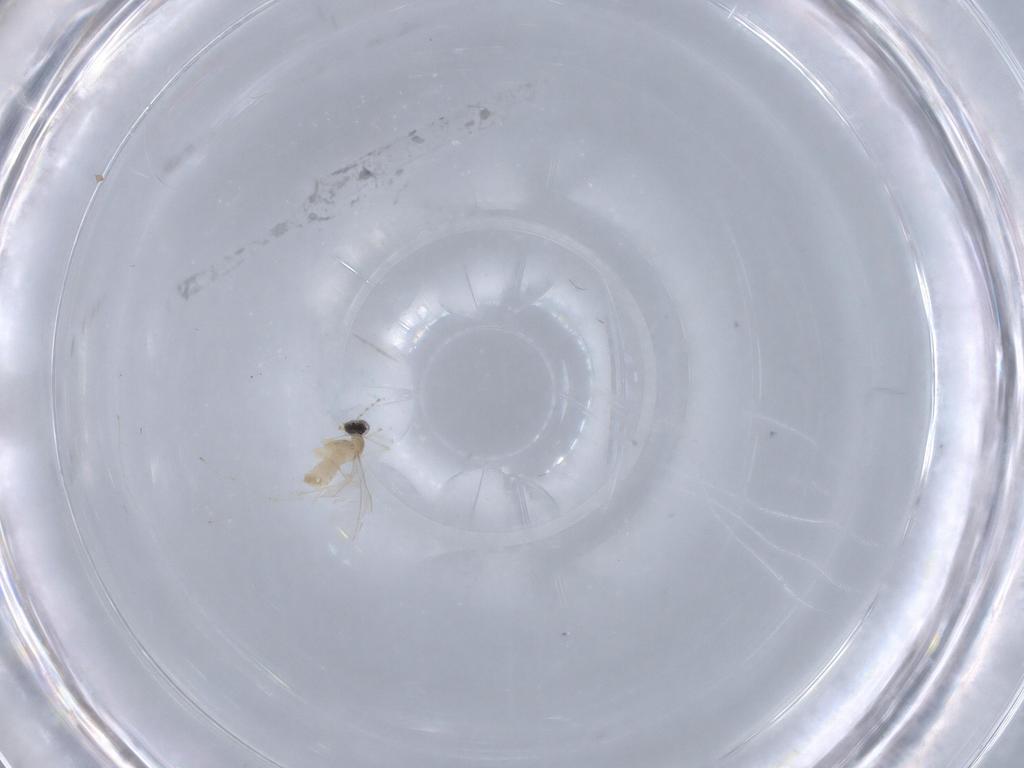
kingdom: Animalia
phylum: Arthropoda
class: Insecta
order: Diptera
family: Cecidomyiidae
